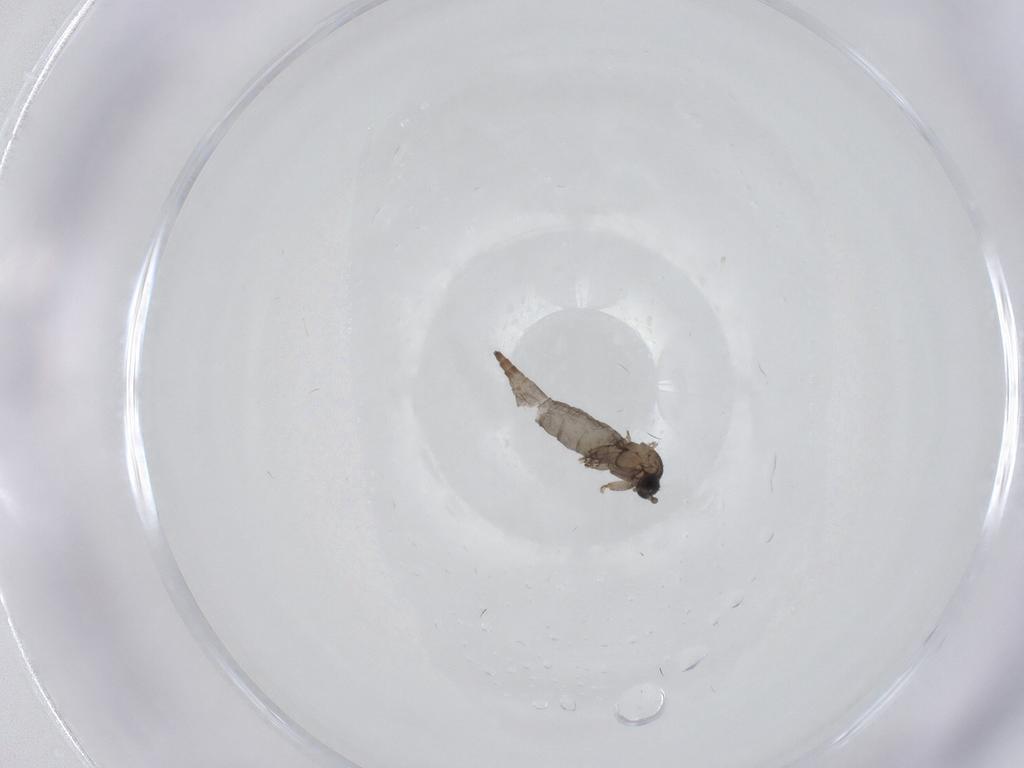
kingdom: Animalia
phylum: Arthropoda
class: Insecta
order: Diptera
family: Sciaridae
